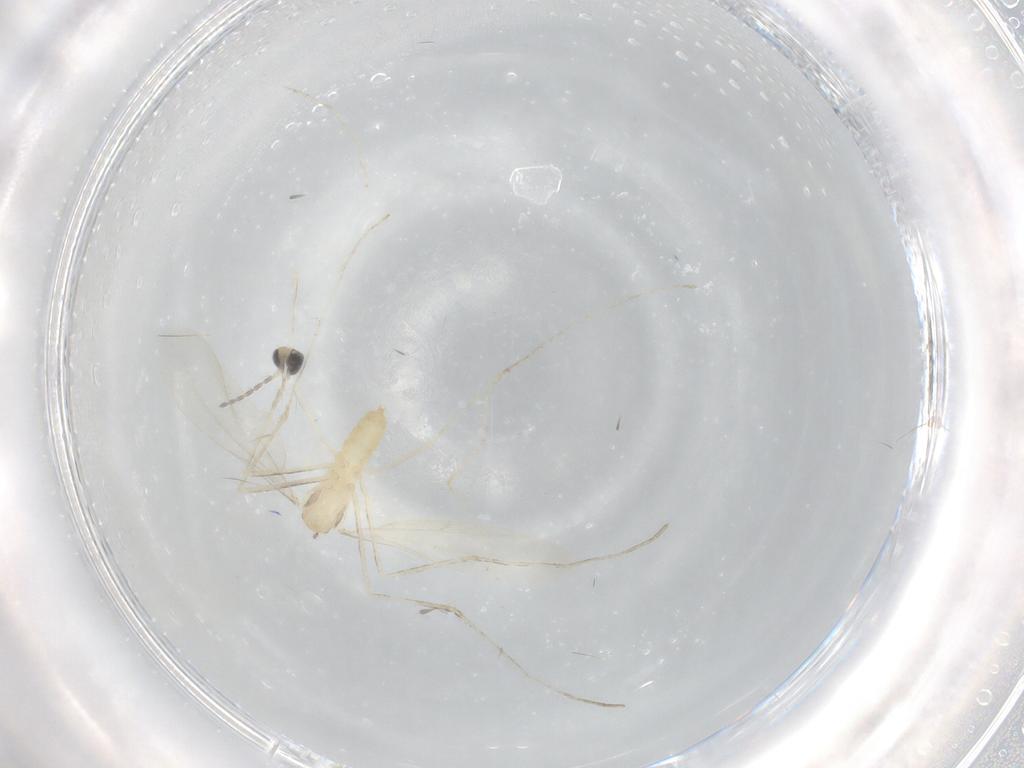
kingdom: Animalia
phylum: Arthropoda
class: Insecta
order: Diptera
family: Cecidomyiidae
